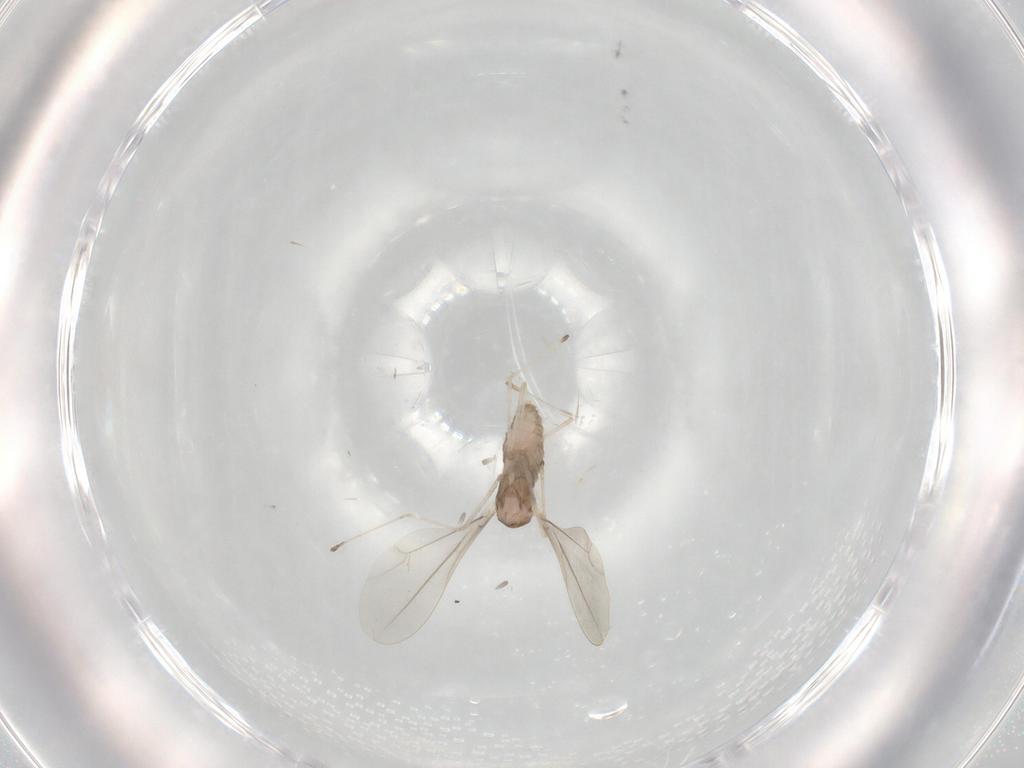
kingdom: Animalia
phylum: Arthropoda
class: Insecta
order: Diptera
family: Cecidomyiidae
